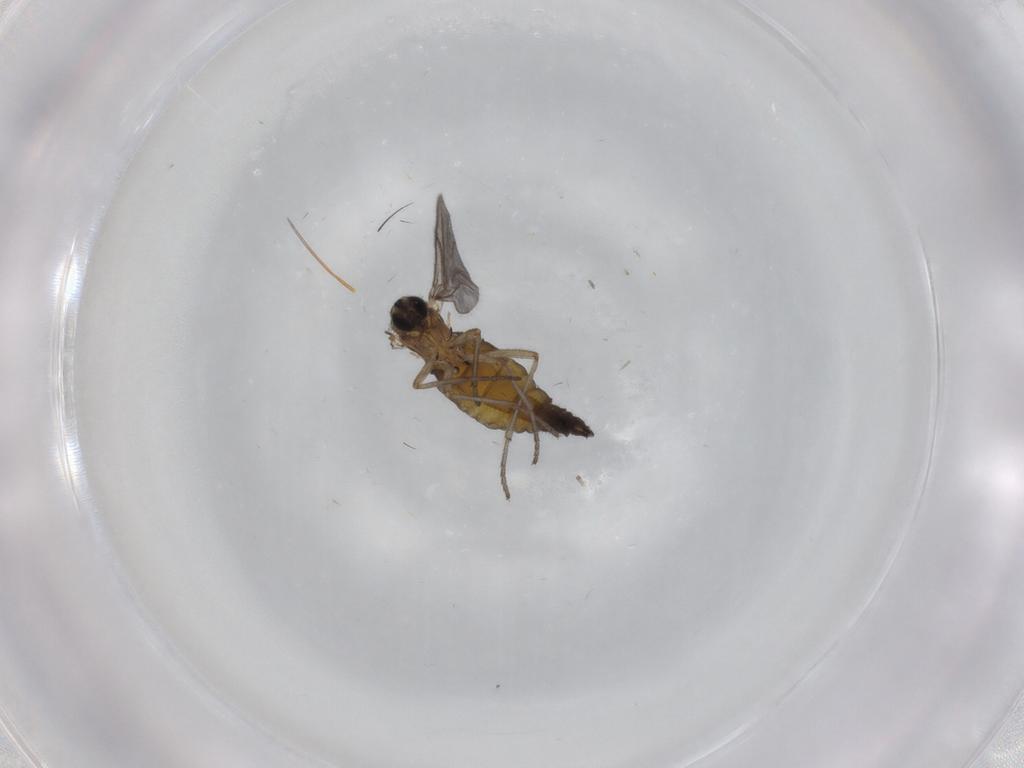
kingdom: Animalia
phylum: Arthropoda
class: Insecta
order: Diptera
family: Sciaridae
